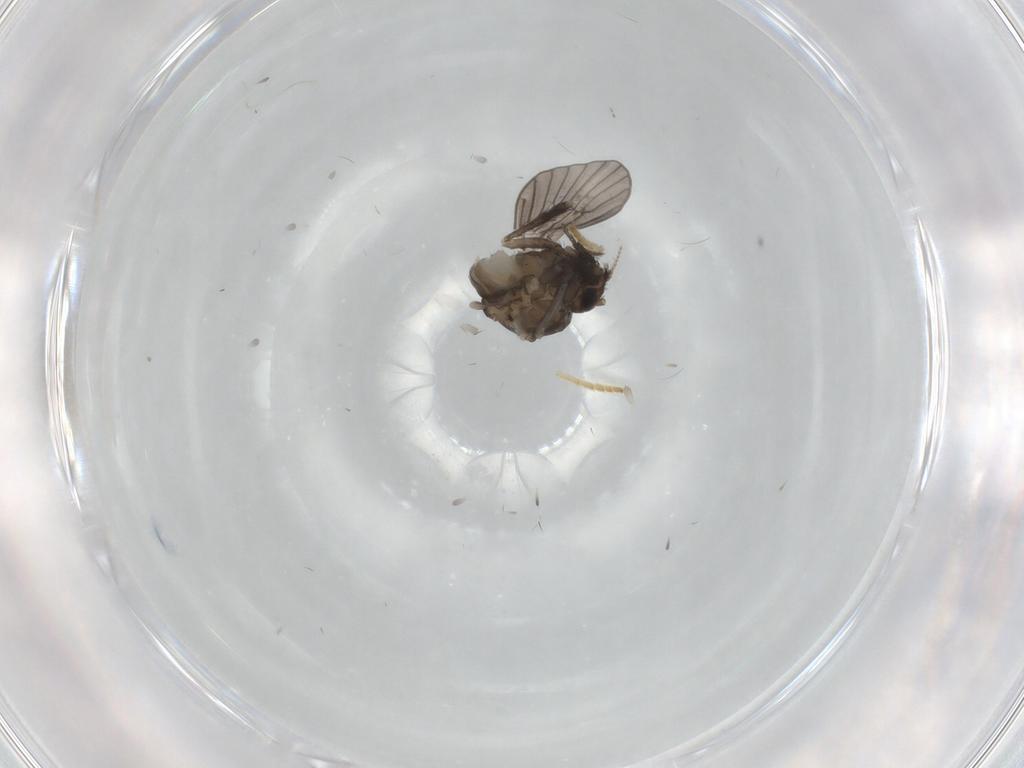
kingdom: Animalia
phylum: Arthropoda
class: Insecta
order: Diptera
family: Psychodidae
